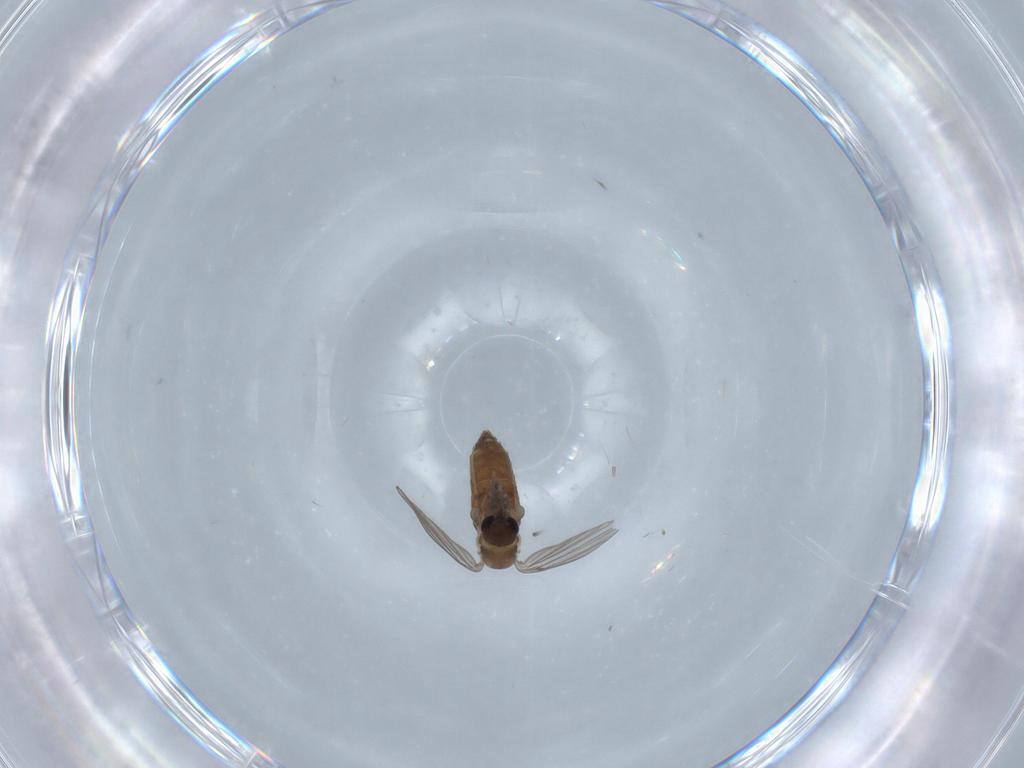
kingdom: Animalia
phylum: Arthropoda
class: Insecta
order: Diptera
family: Psychodidae
